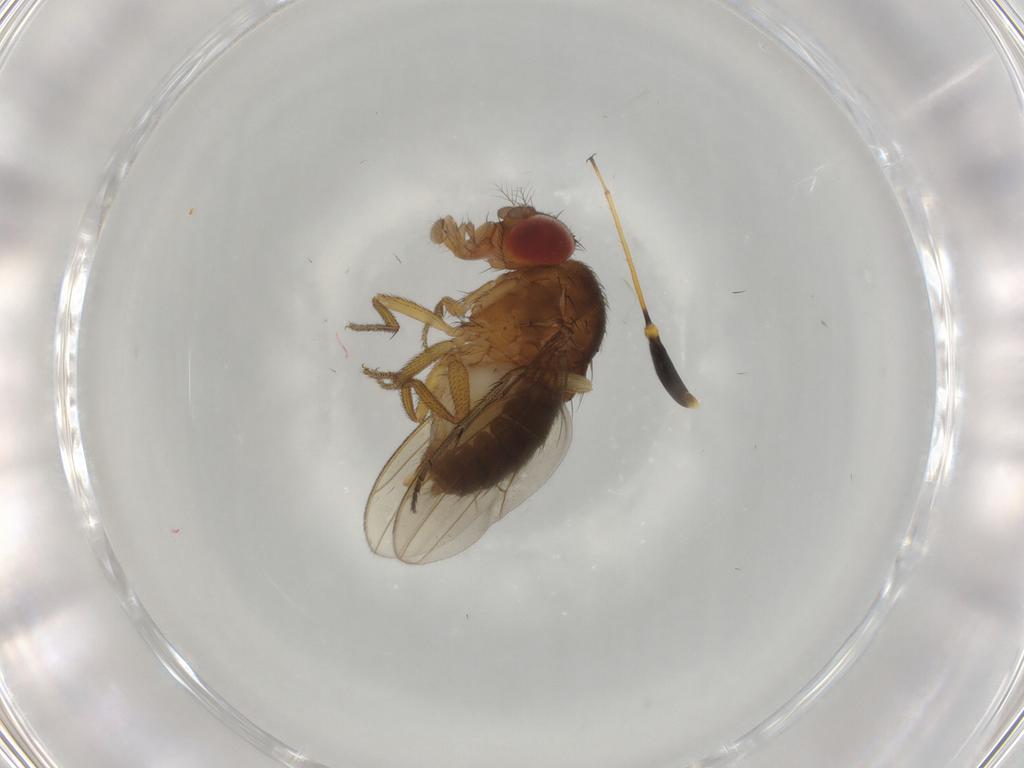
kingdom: Animalia
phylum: Arthropoda
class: Insecta
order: Diptera
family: Drosophilidae
